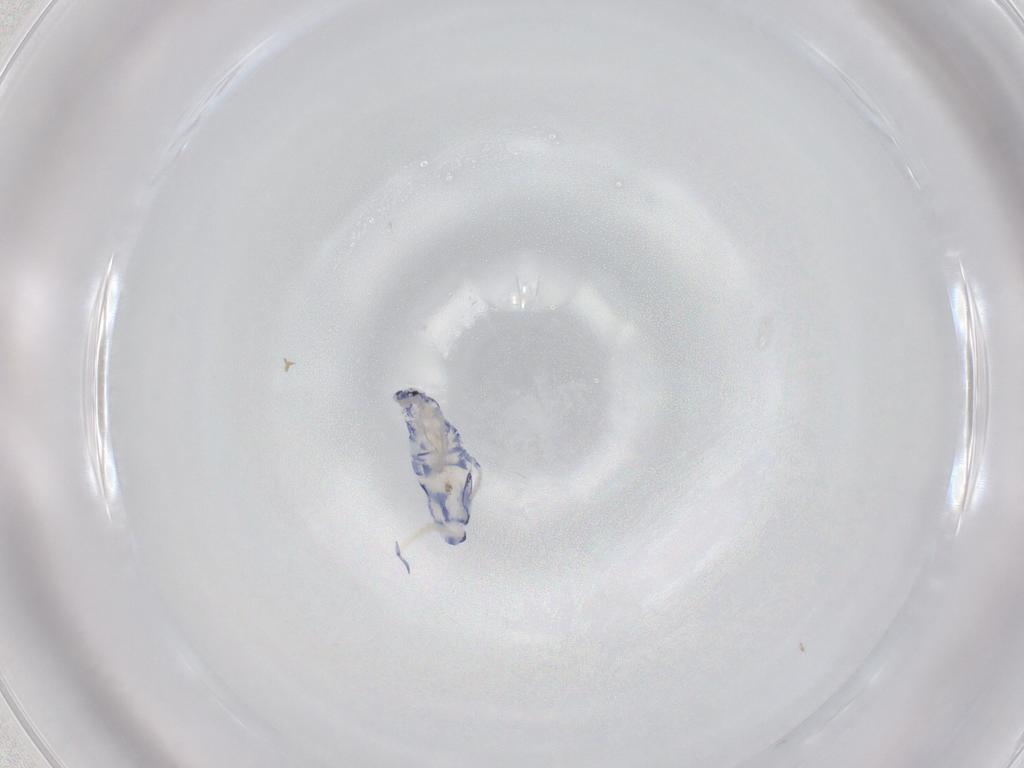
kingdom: Animalia
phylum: Arthropoda
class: Collembola
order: Entomobryomorpha
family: Entomobryidae
